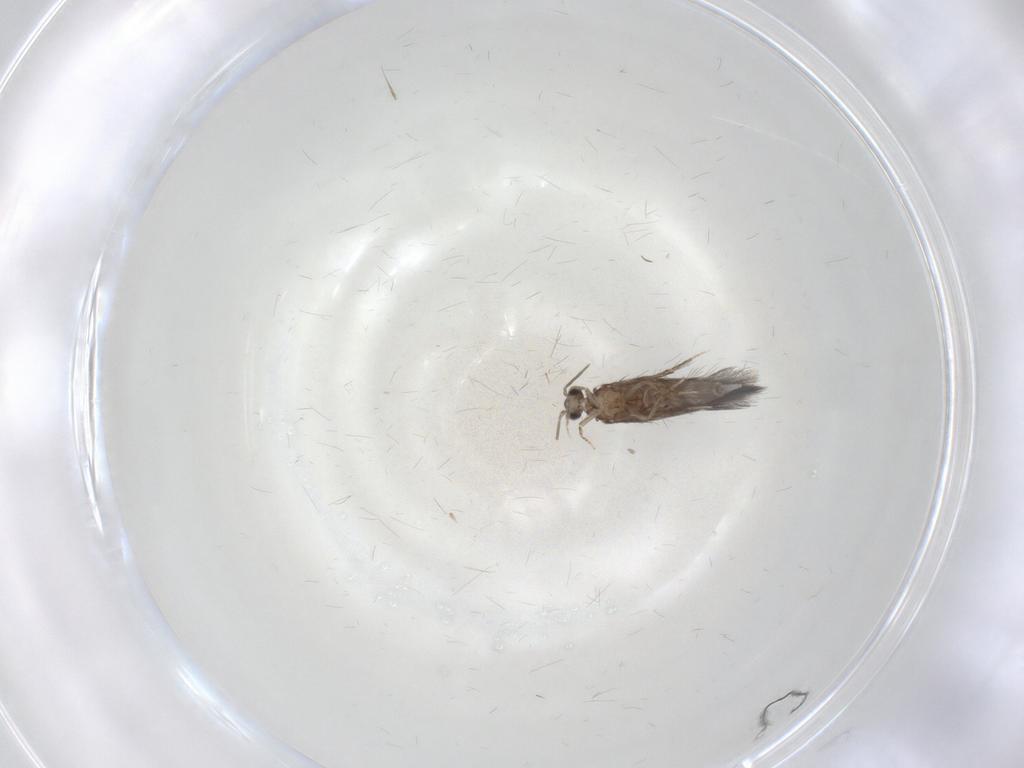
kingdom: Animalia
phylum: Arthropoda
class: Insecta
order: Trichoptera
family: Hydroptilidae
